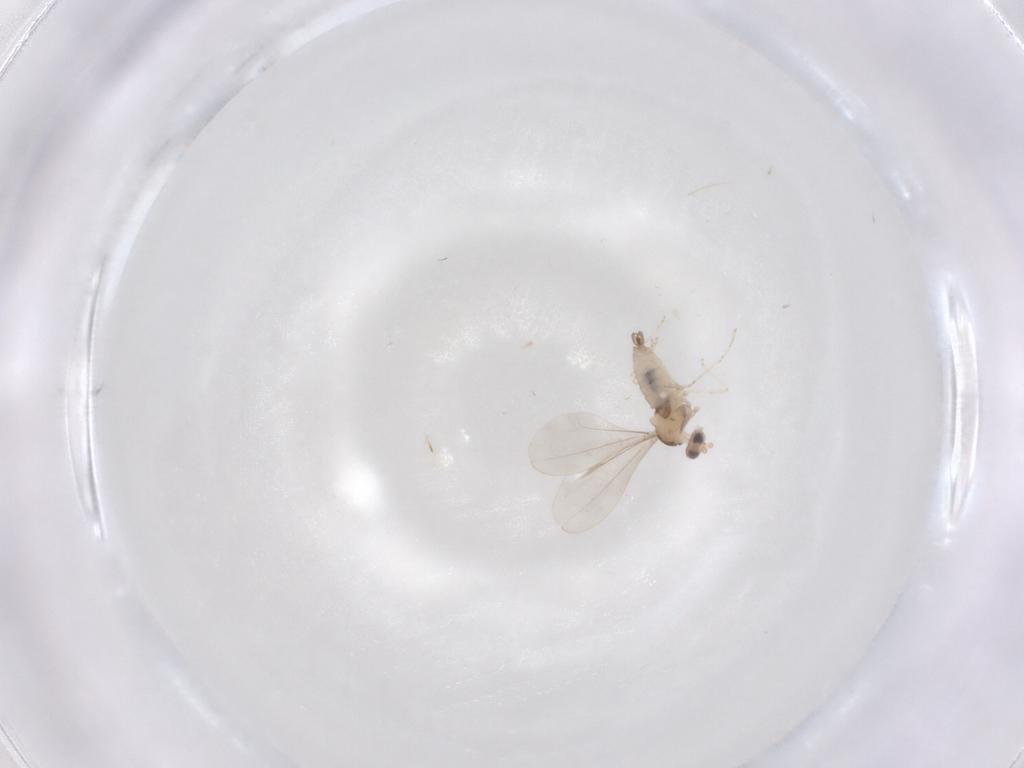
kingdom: Animalia
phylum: Arthropoda
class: Insecta
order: Diptera
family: Cecidomyiidae
